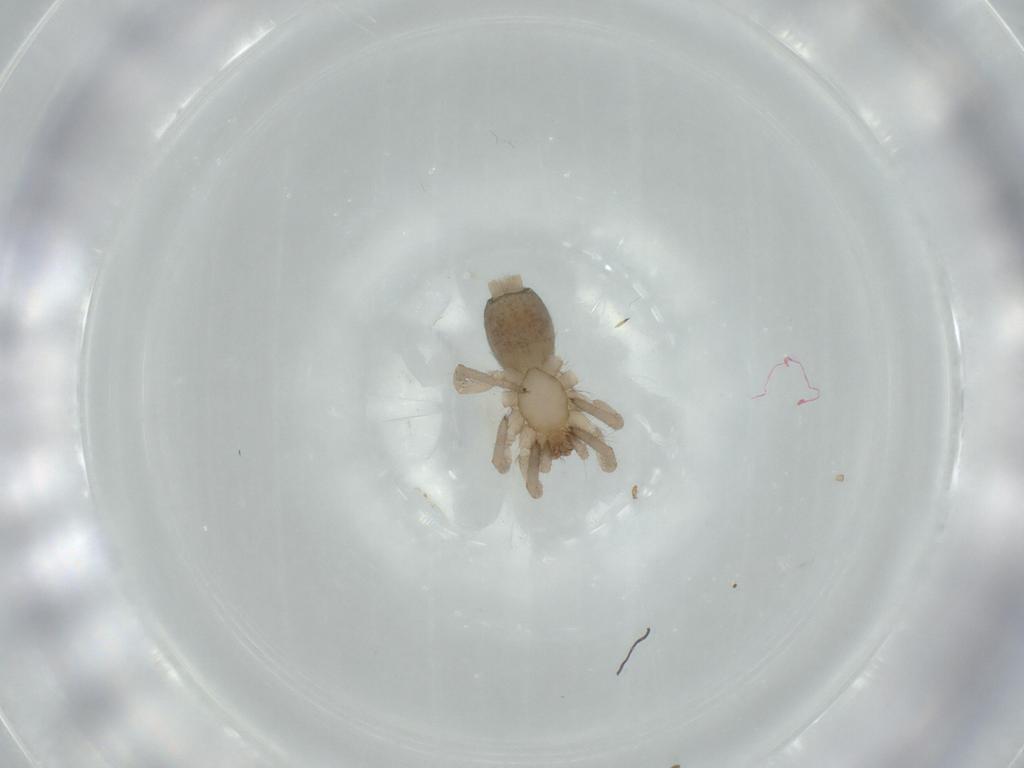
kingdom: Animalia
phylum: Arthropoda
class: Arachnida
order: Araneae
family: Gnaphosidae
